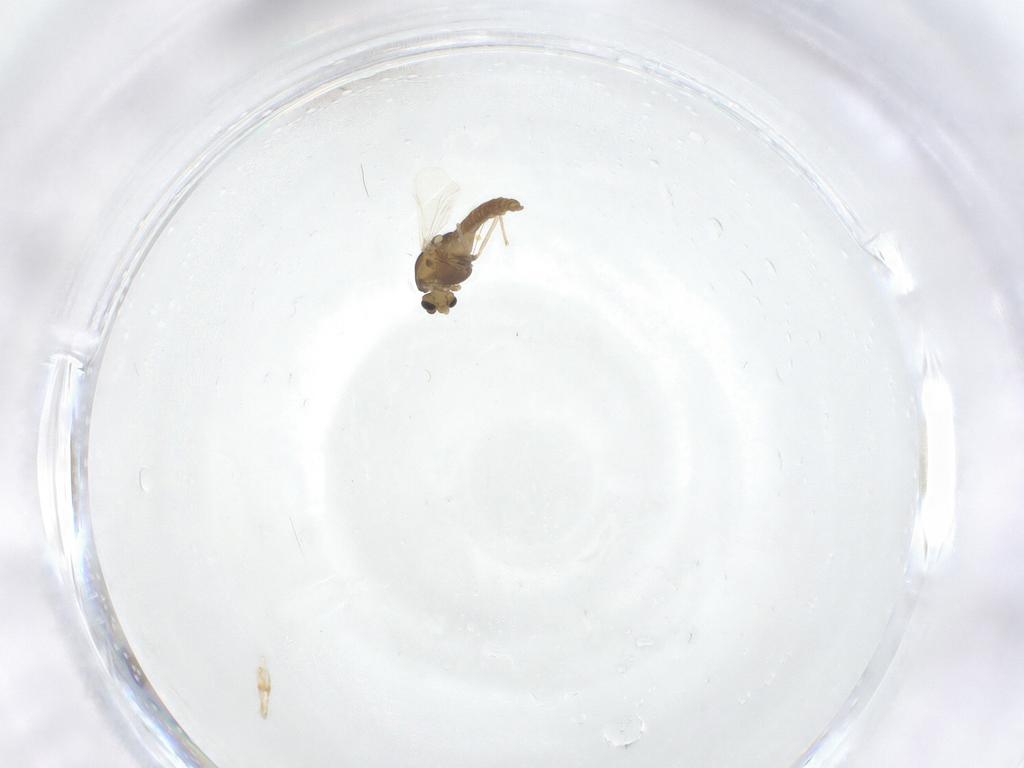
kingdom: Animalia
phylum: Arthropoda
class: Insecta
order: Diptera
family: Chironomidae
